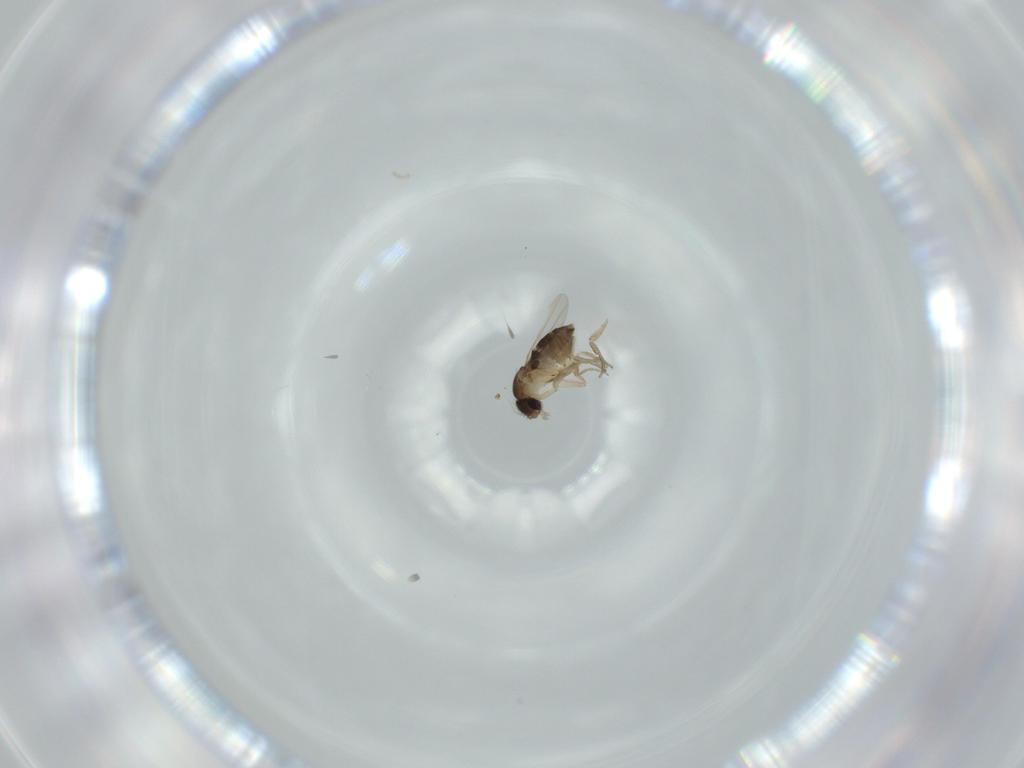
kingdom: Animalia
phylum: Arthropoda
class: Insecta
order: Diptera
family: Phoridae
